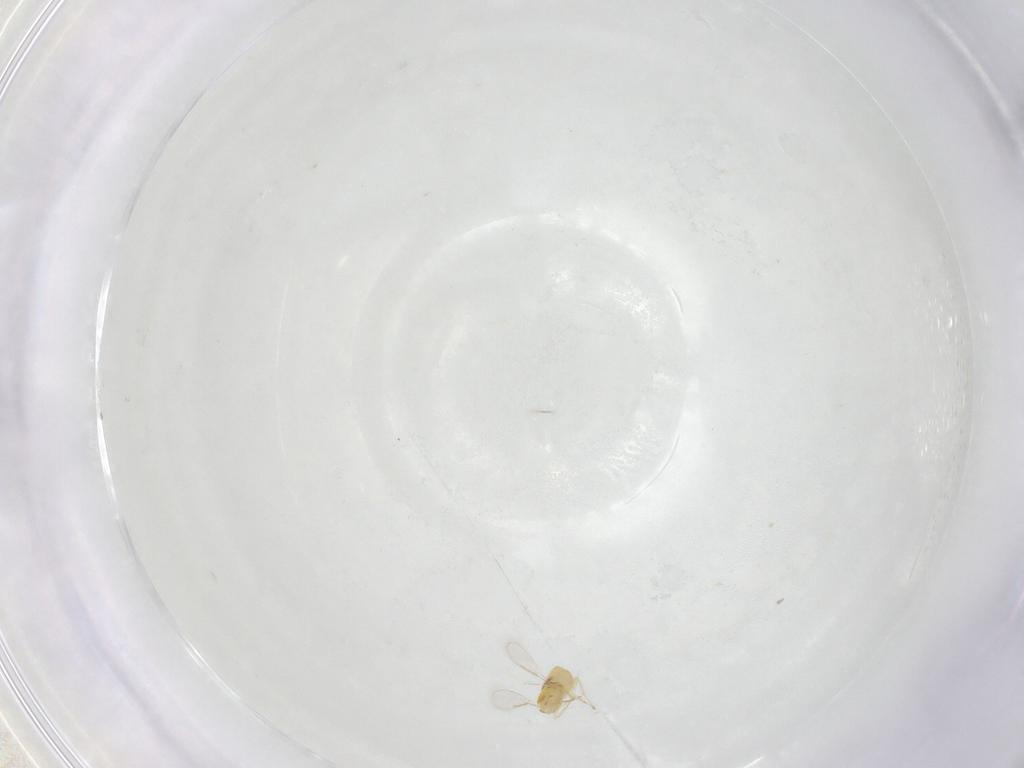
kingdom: Animalia
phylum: Arthropoda
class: Insecta
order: Hymenoptera
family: Aphelinidae
